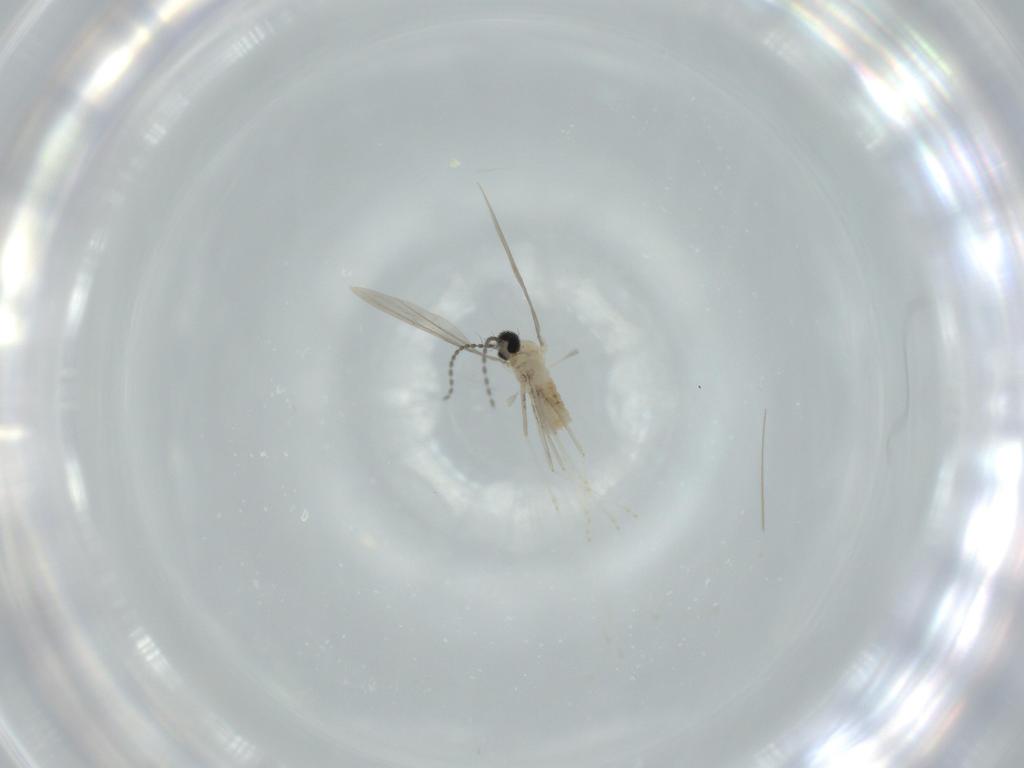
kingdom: Animalia
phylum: Arthropoda
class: Insecta
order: Diptera
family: Cecidomyiidae
